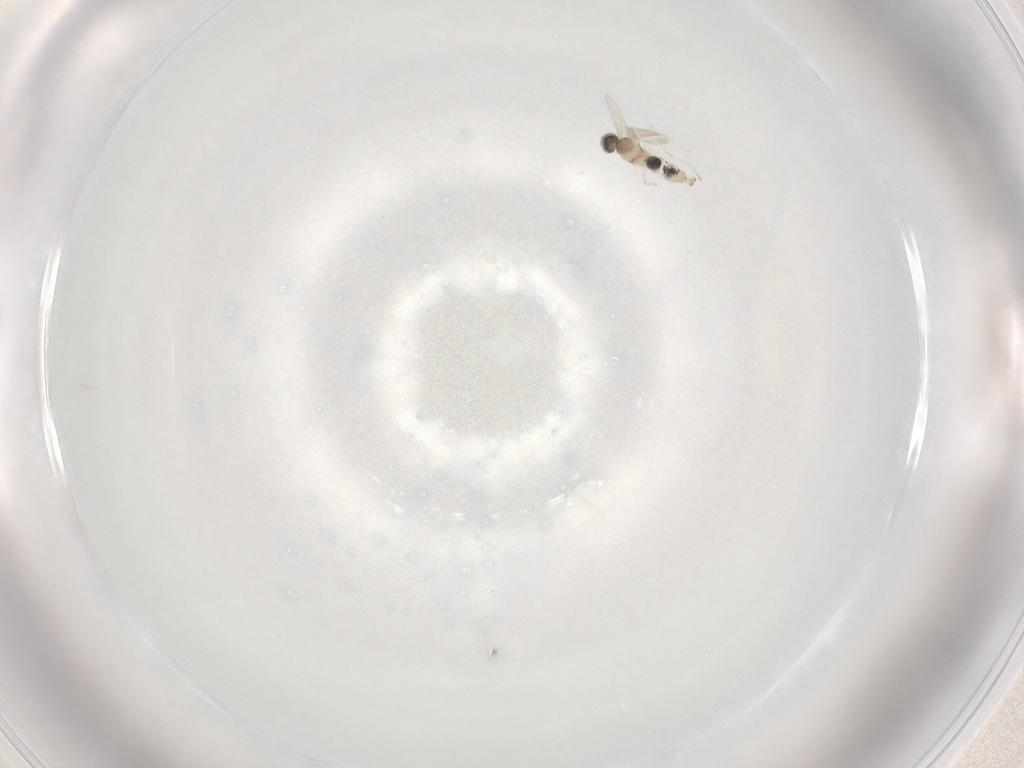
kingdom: Animalia
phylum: Arthropoda
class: Insecta
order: Diptera
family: Cecidomyiidae
